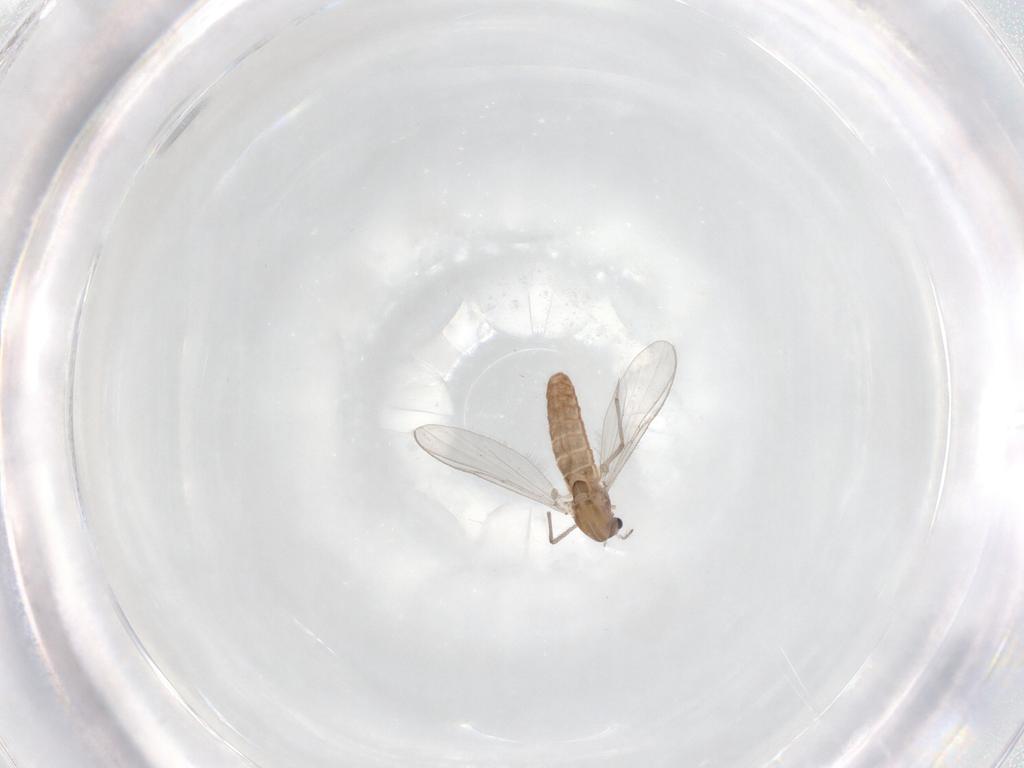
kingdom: Animalia
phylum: Arthropoda
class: Insecta
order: Diptera
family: Chironomidae
